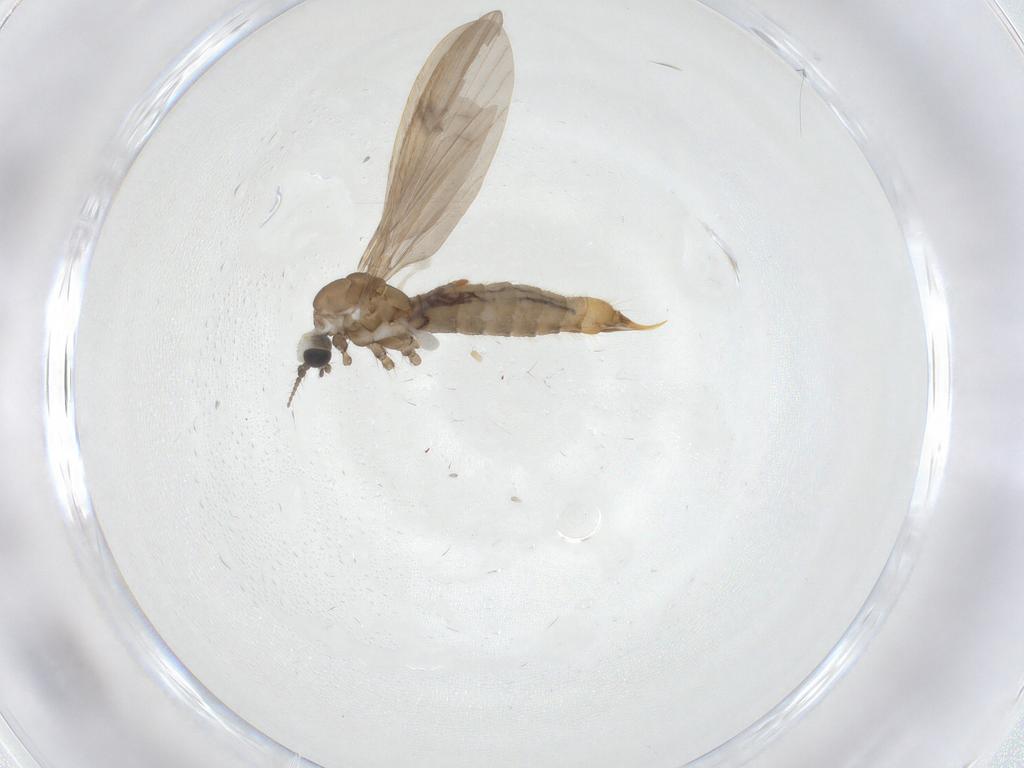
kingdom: Animalia
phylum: Arthropoda
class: Insecta
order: Diptera
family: Limoniidae
